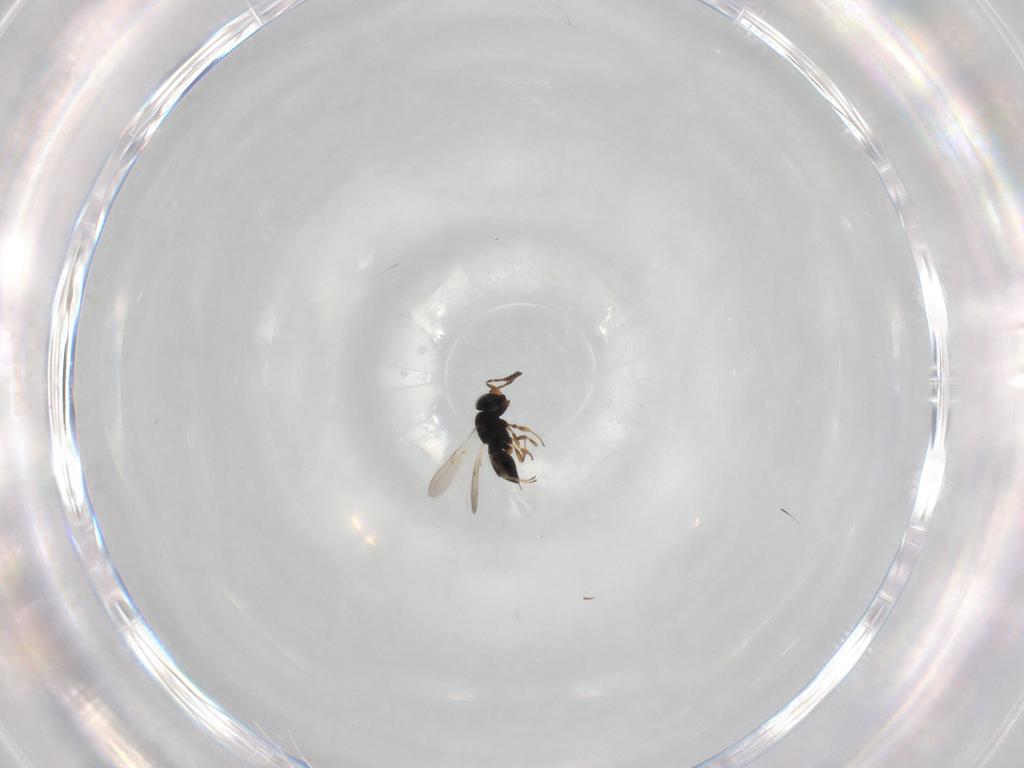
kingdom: Animalia
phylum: Arthropoda
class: Insecta
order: Hymenoptera
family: Scelionidae
